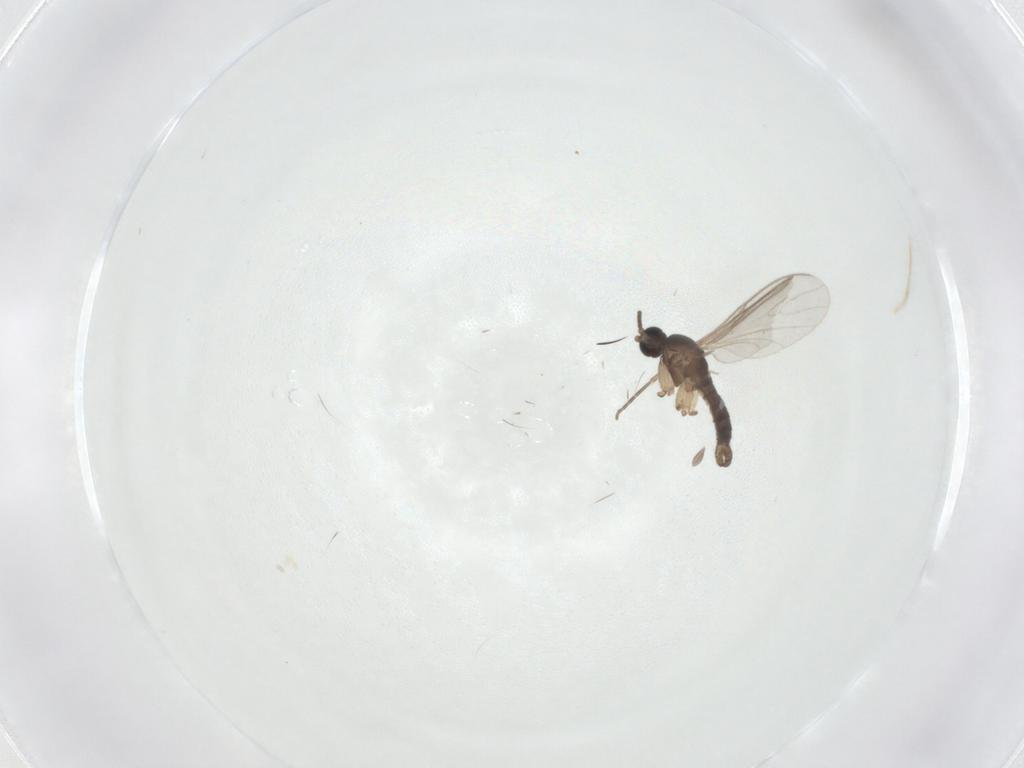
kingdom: Animalia
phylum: Arthropoda
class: Insecta
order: Diptera
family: Sciaridae
